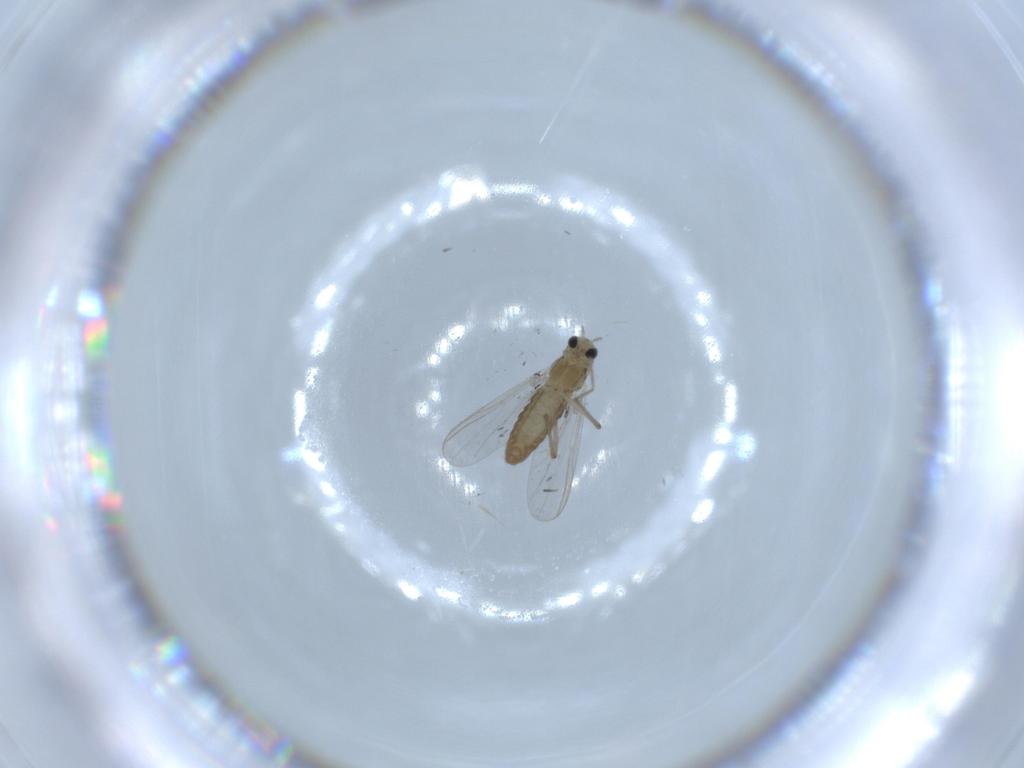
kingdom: Animalia
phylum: Arthropoda
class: Insecta
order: Diptera
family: Chironomidae
